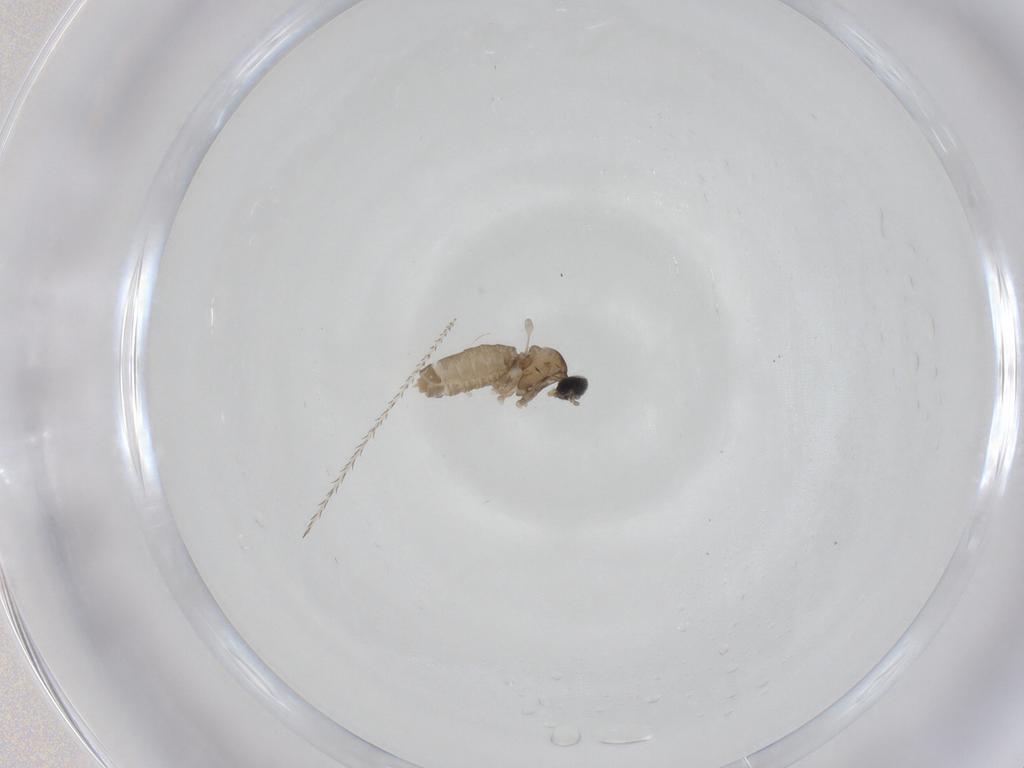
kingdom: Animalia
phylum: Arthropoda
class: Insecta
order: Diptera
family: Cecidomyiidae
